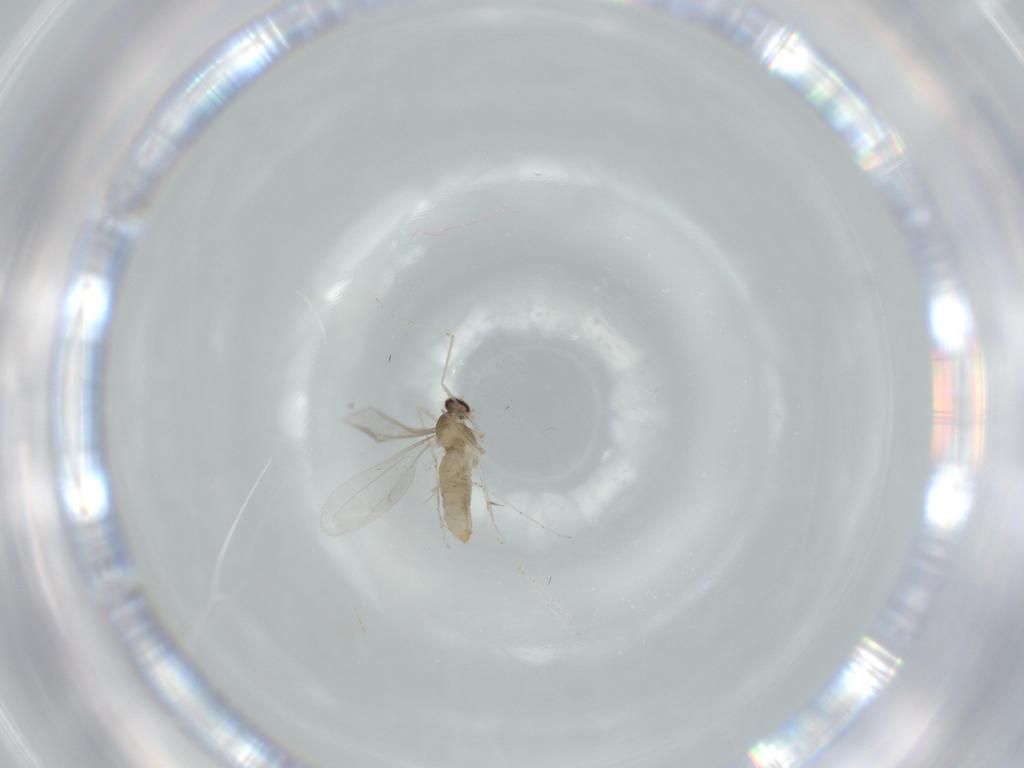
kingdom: Animalia
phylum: Arthropoda
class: Insecta
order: Diptera
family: Cecidomyiidae
